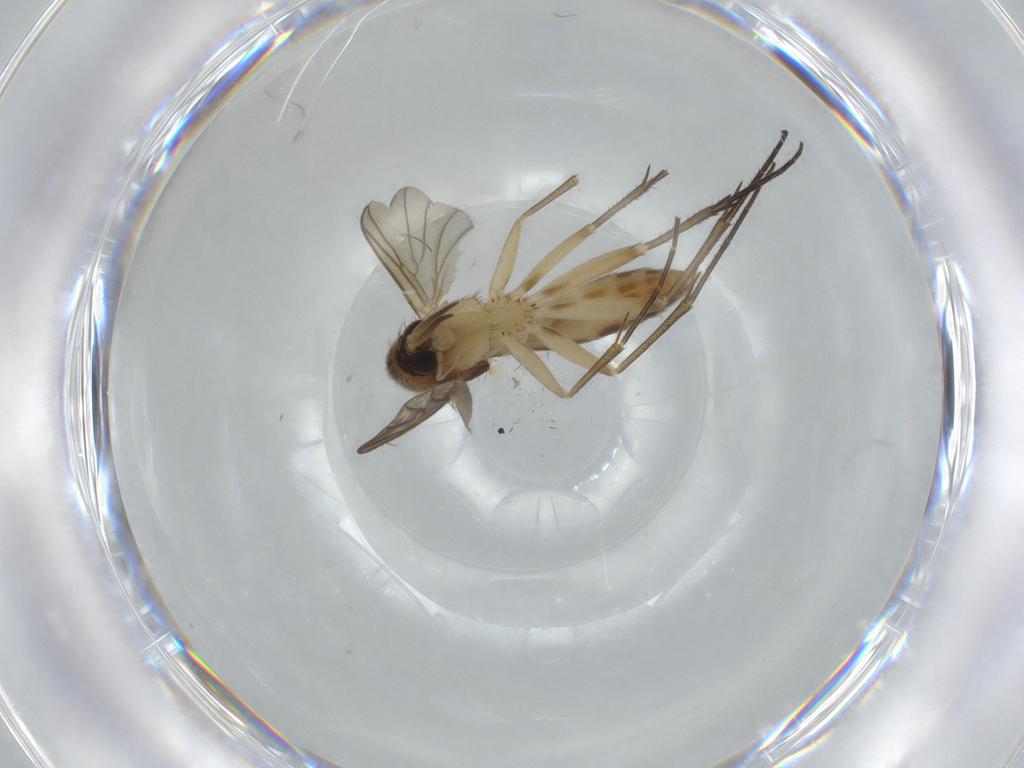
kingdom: Animalia
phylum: Arthropoda
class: Insecta
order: Diptera
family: Mycetophilidae
